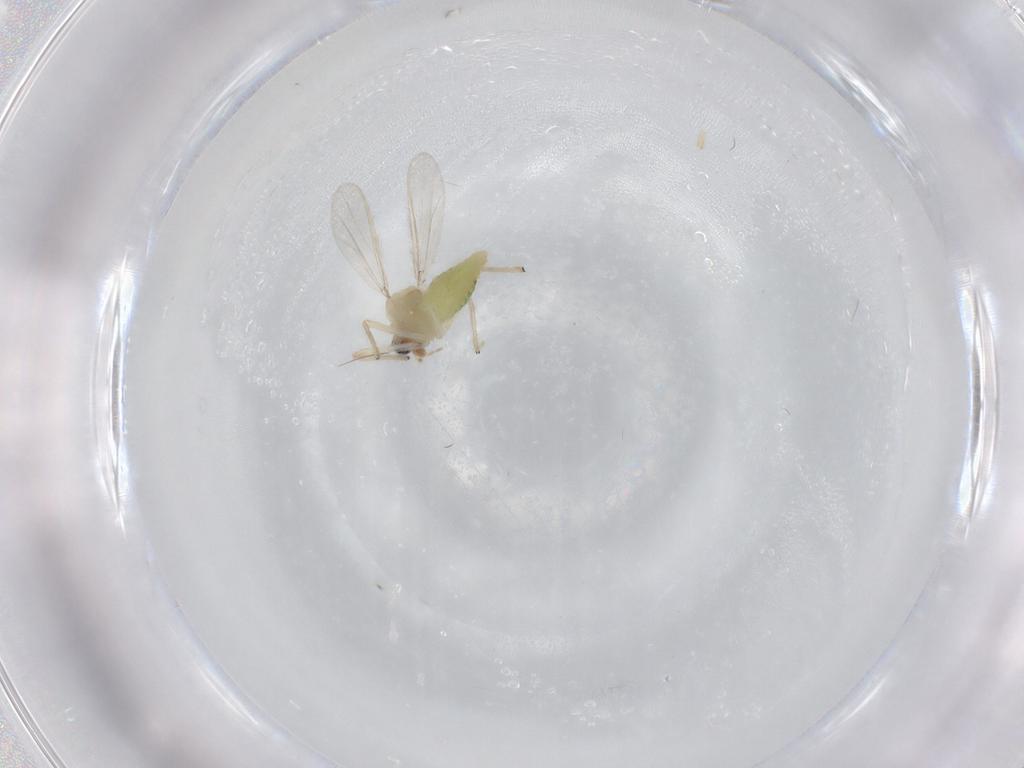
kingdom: Animalia
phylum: Arthropoda
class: Insecta
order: Diptera
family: Chironomidae
